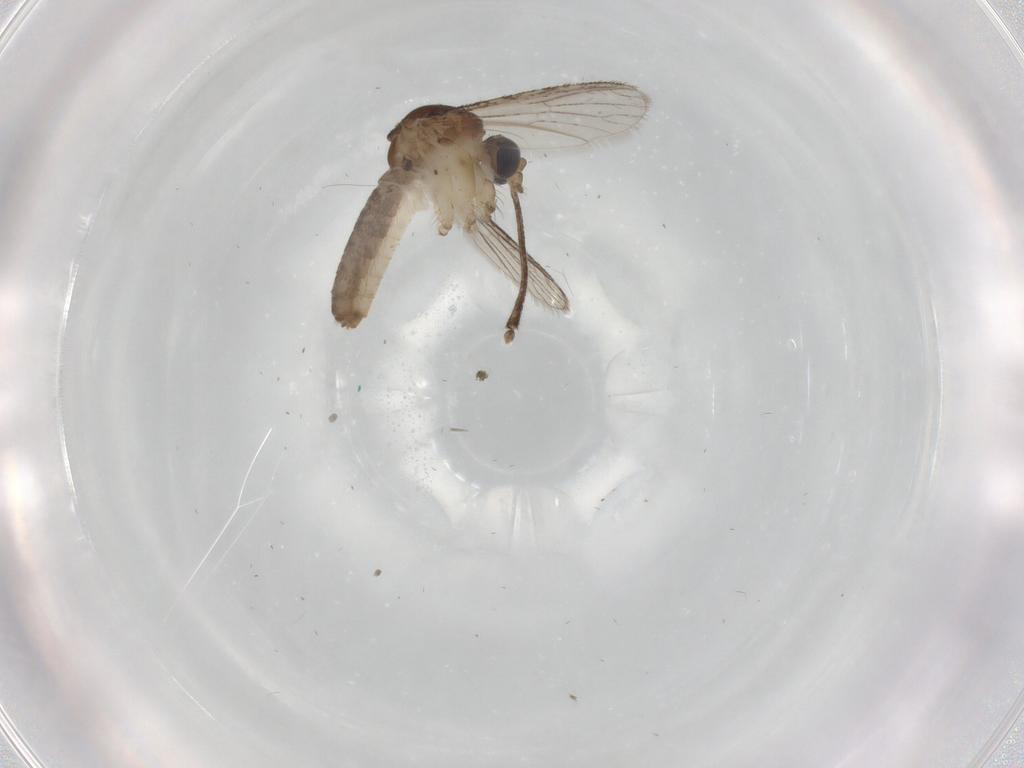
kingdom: Animalia
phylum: Arthropoda
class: Insecta
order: Diptera
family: Chloropidae
